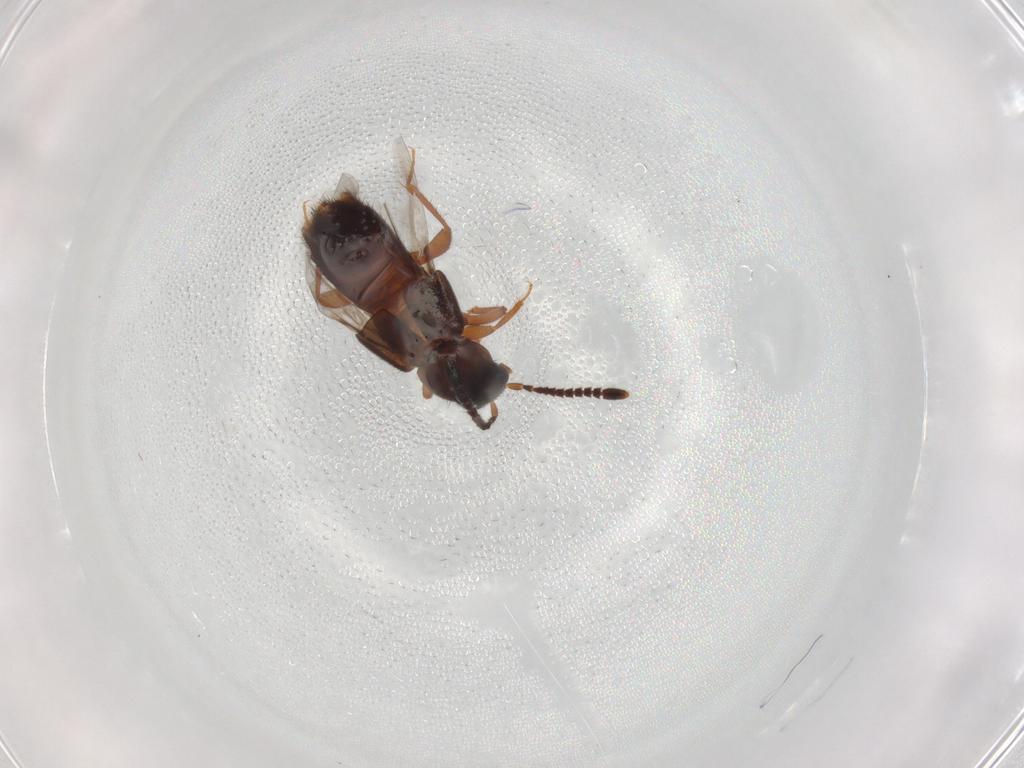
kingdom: Animalia
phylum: Arthropoda
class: Insecta
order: Coleoptera
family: Staphylinidae
